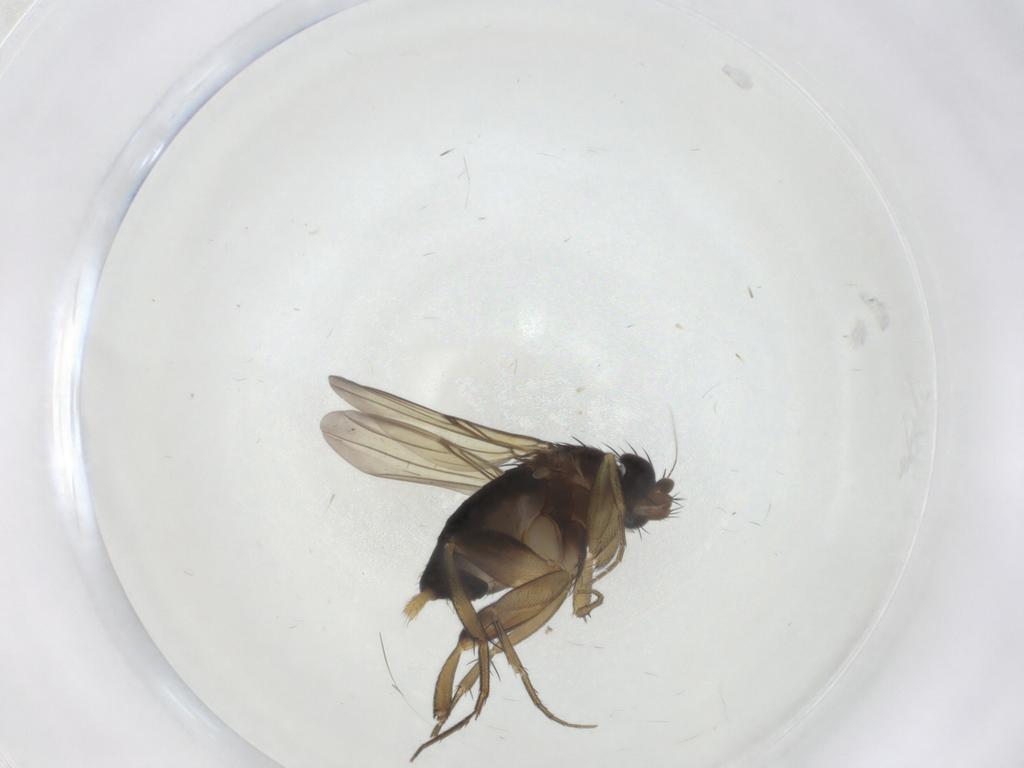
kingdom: Animalia
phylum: Arthropoda
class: Insecta
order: Diptera
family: Phoridae
